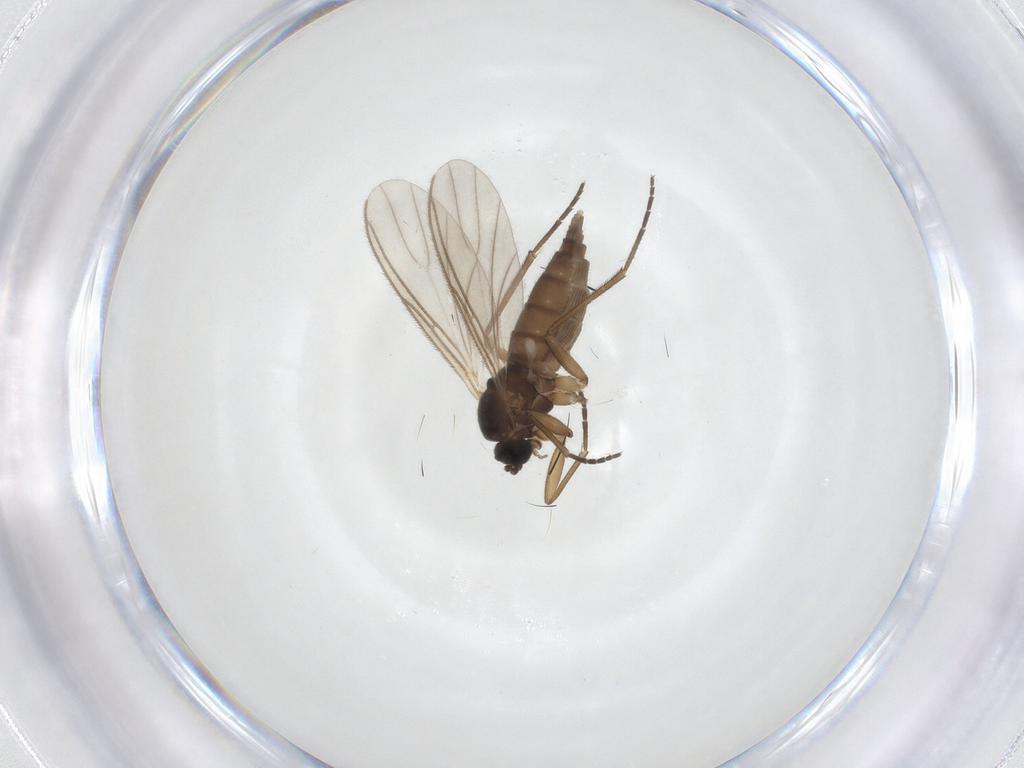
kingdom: Animalia
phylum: Arthropoda
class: Insecta
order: Diptera
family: Sciaridae
